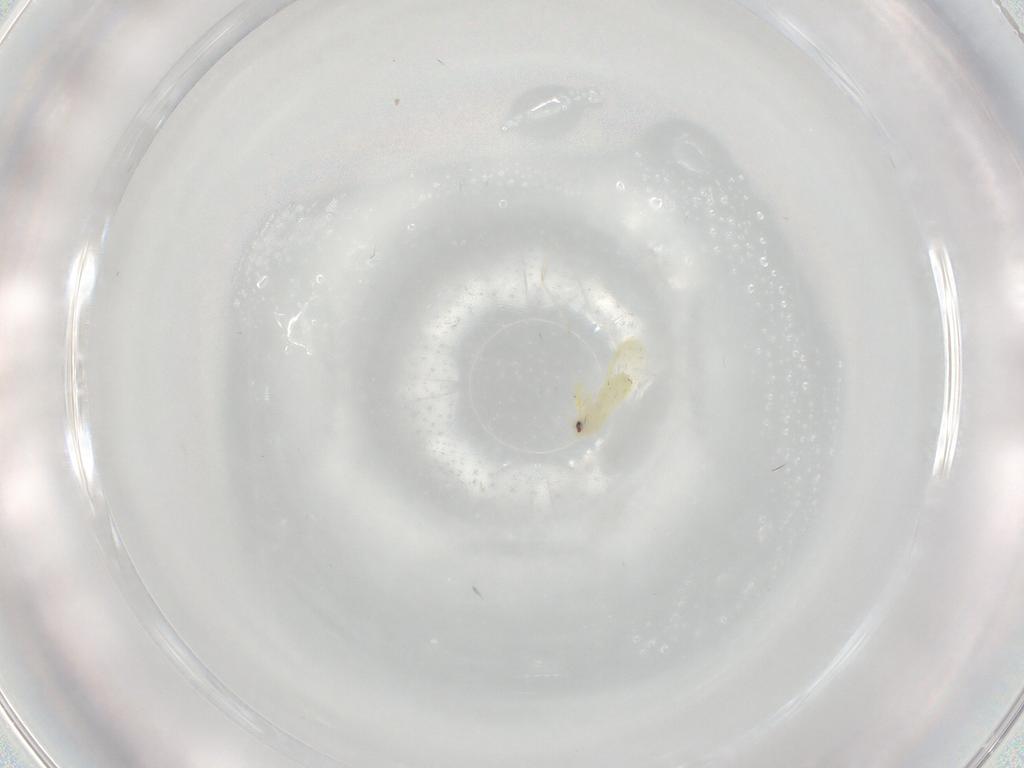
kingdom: Animalia
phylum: Arthropoda
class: Insecta
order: Hemiptera
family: Aleyrodidae
